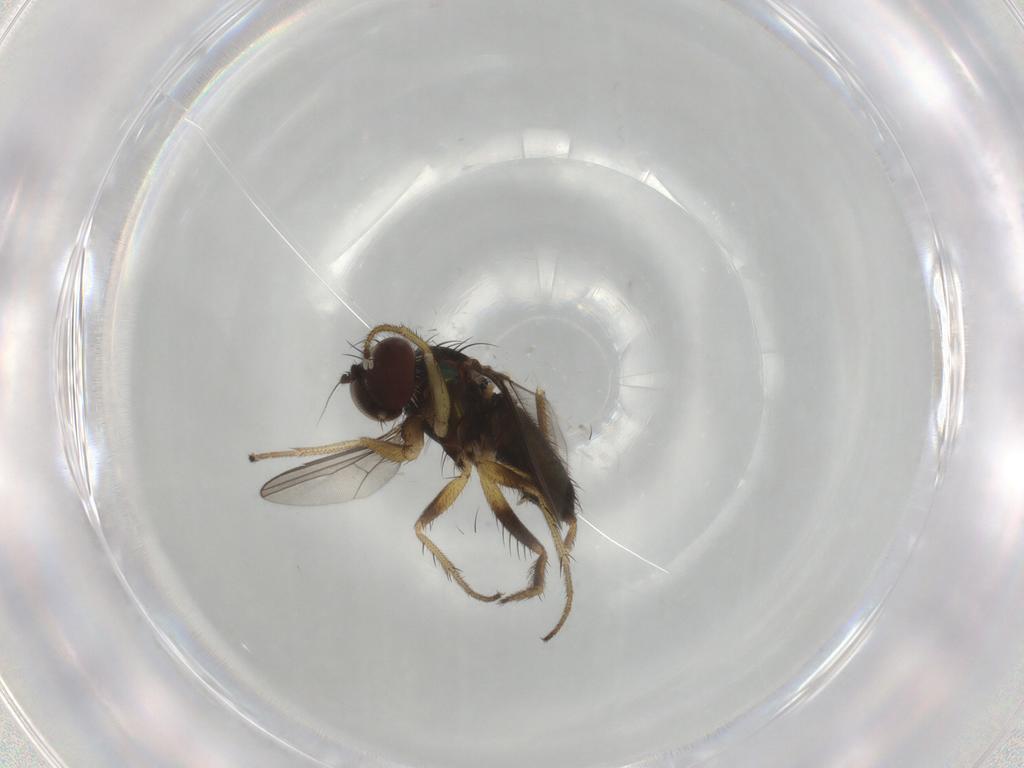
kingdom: Animalia
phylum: Arthropoda
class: Insecta
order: Diptera
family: Dolichopodidae
